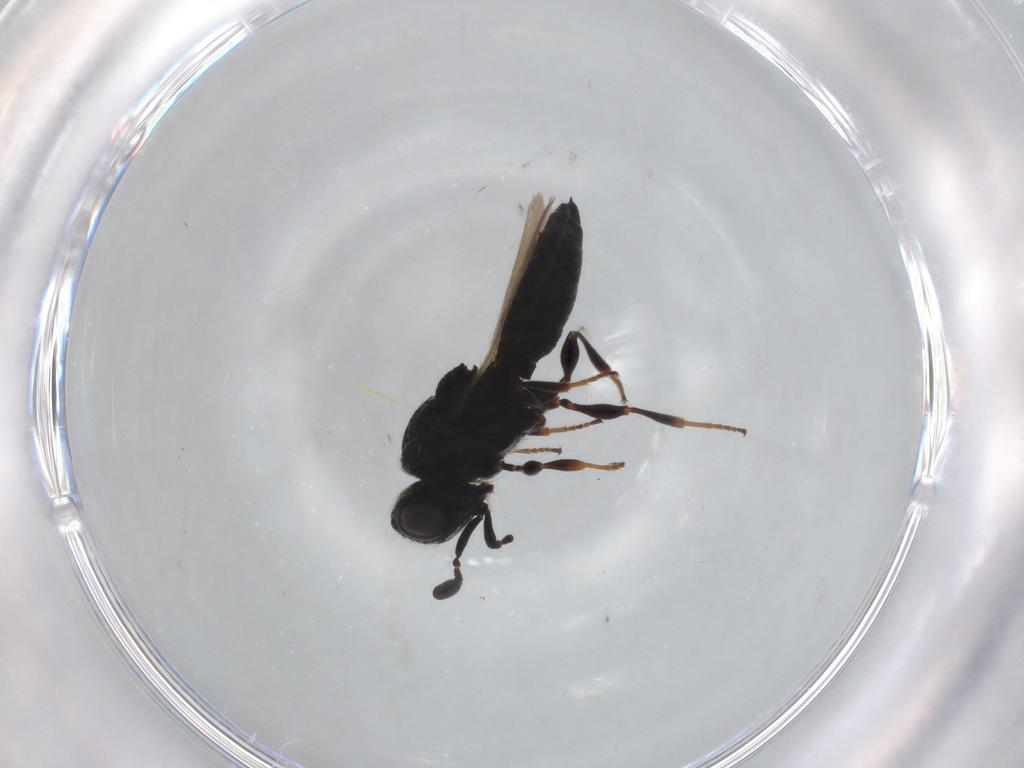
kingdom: Animalia
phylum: Arthropoda
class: Insecta
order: Hymenoptera
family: Scelionidae
